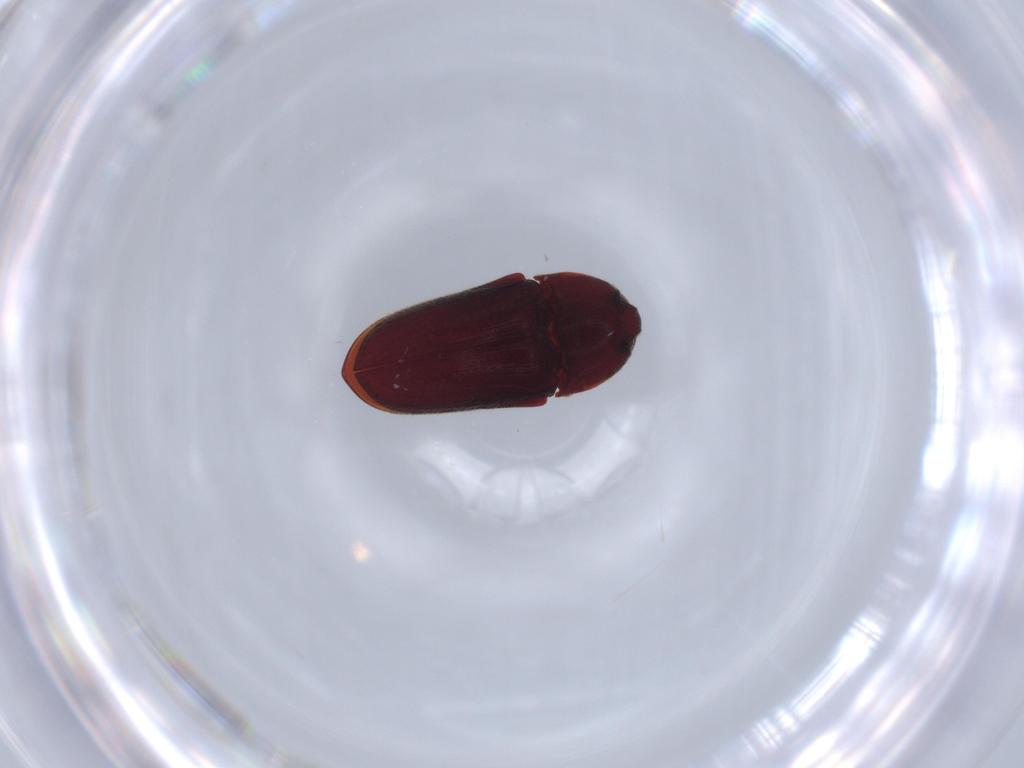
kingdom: Animalia
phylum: Arthropoda
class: Insecta
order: Coleoptera
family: Throscidae
